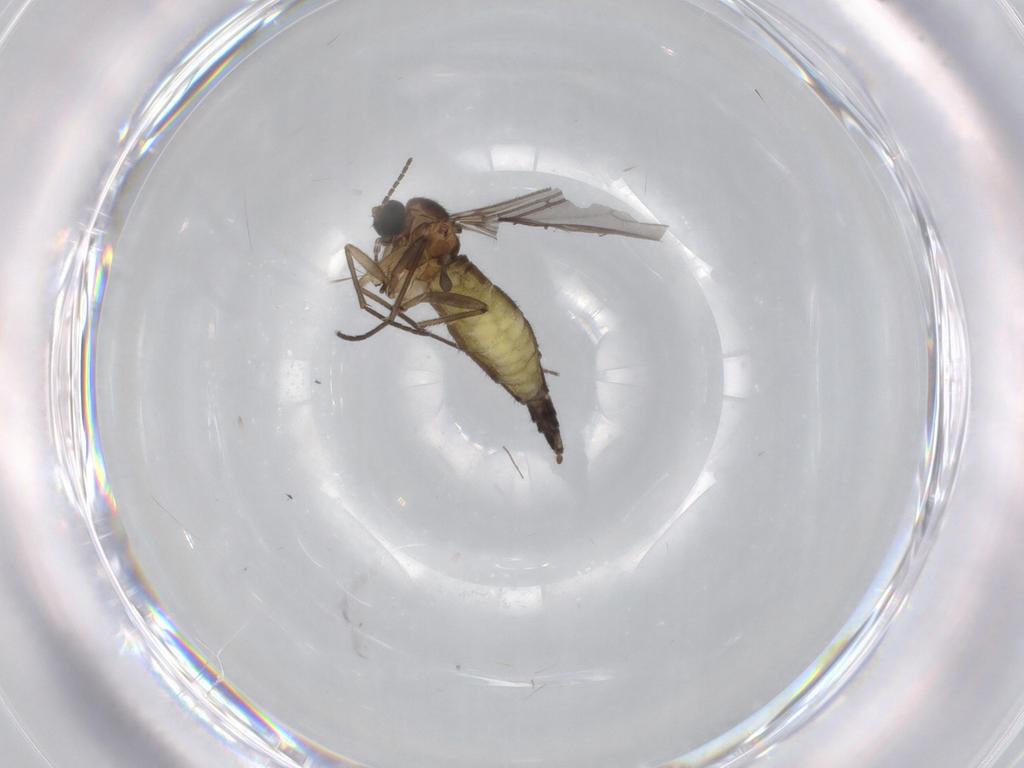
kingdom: Animalia
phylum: Arthropoda
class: Insecta
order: Diptera
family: Sciaridae
